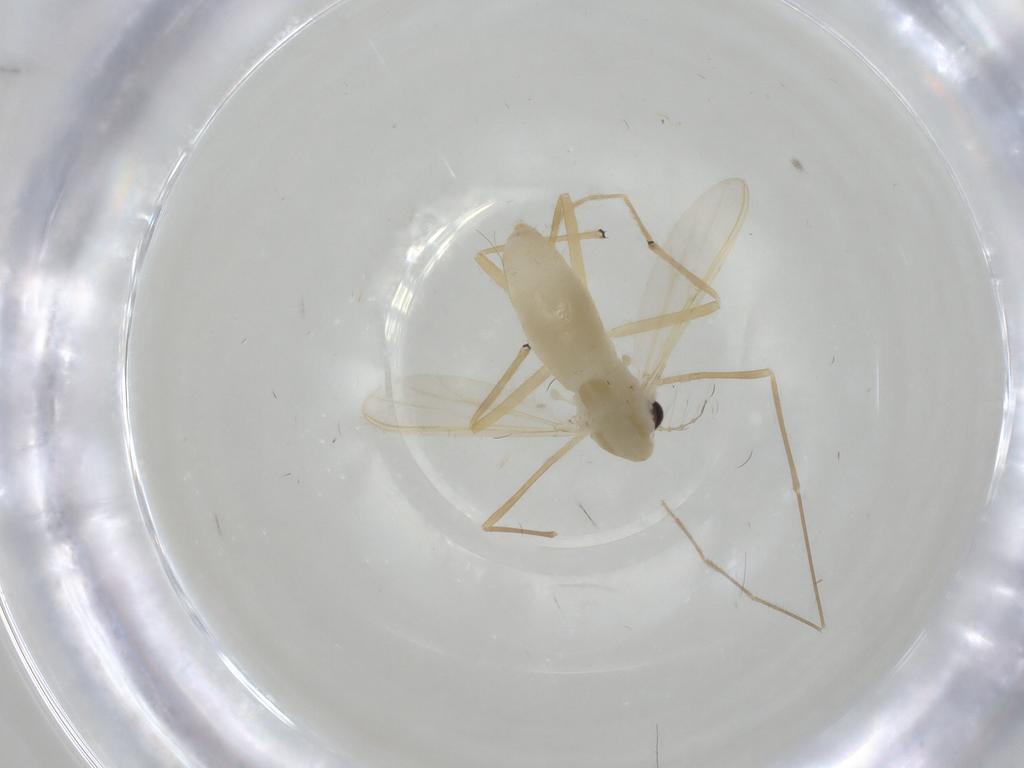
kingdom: Animalia
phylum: Arthropoda
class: Insecta
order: Diptera
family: Chironomidae
